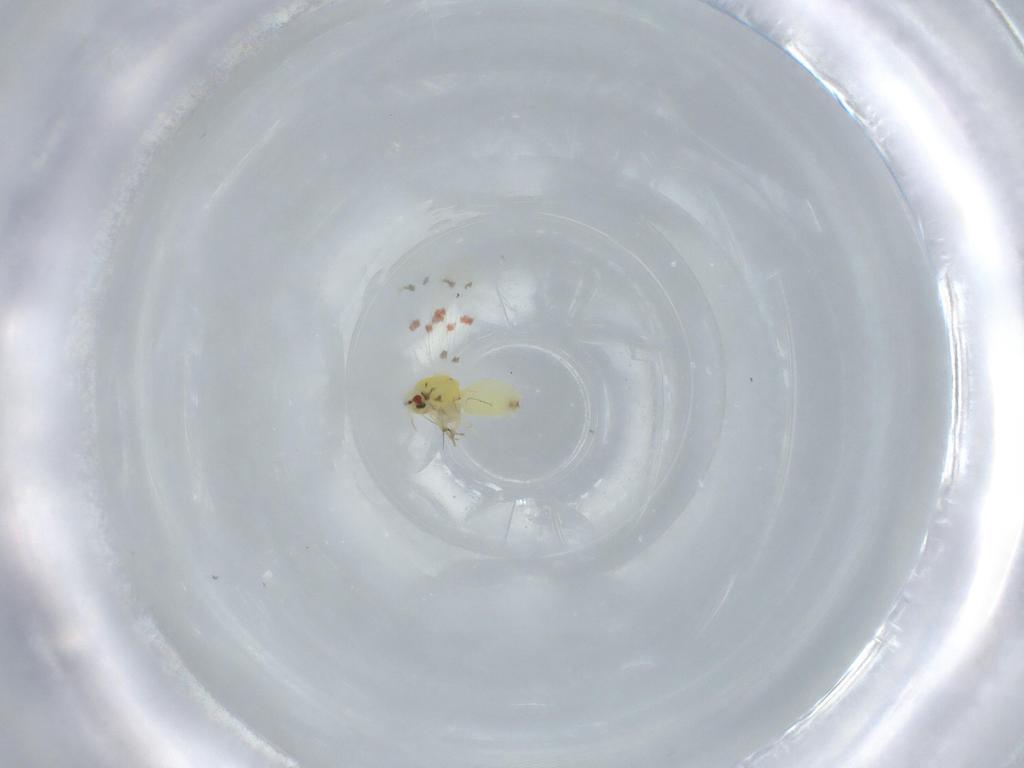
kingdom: Animalia
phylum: Arthropoda
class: Insecta
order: Hemiptera
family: Aleyrodidae
